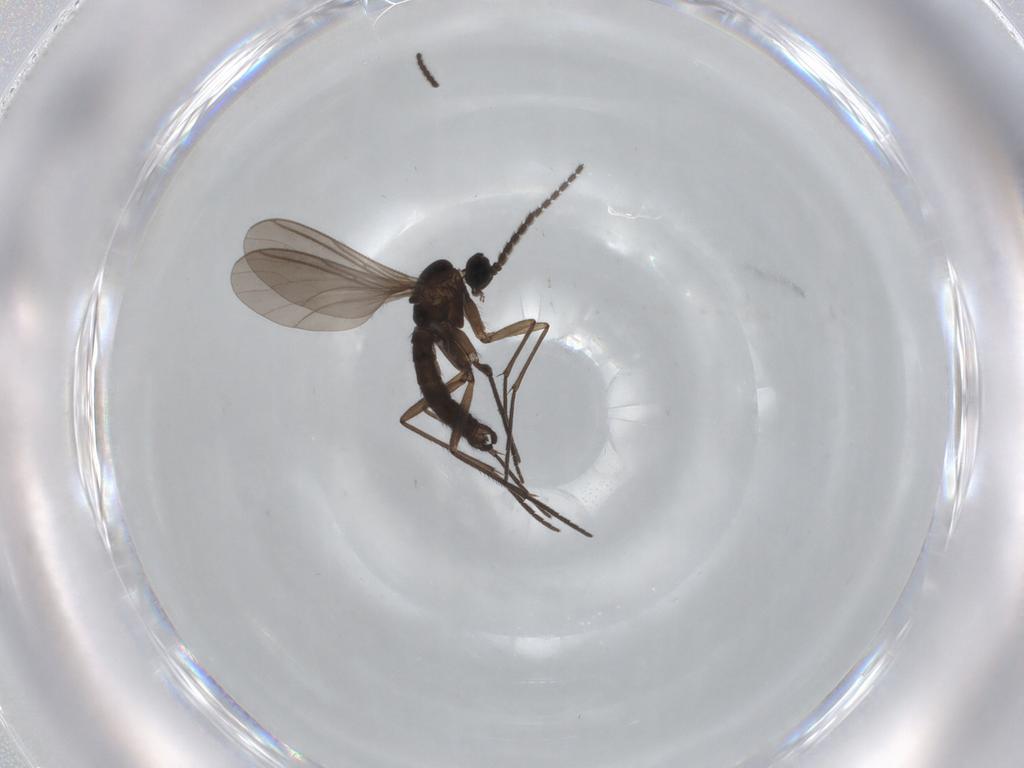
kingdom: Animalia
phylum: Arthropoda
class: Insecta
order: Diptera
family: Sciaridae
